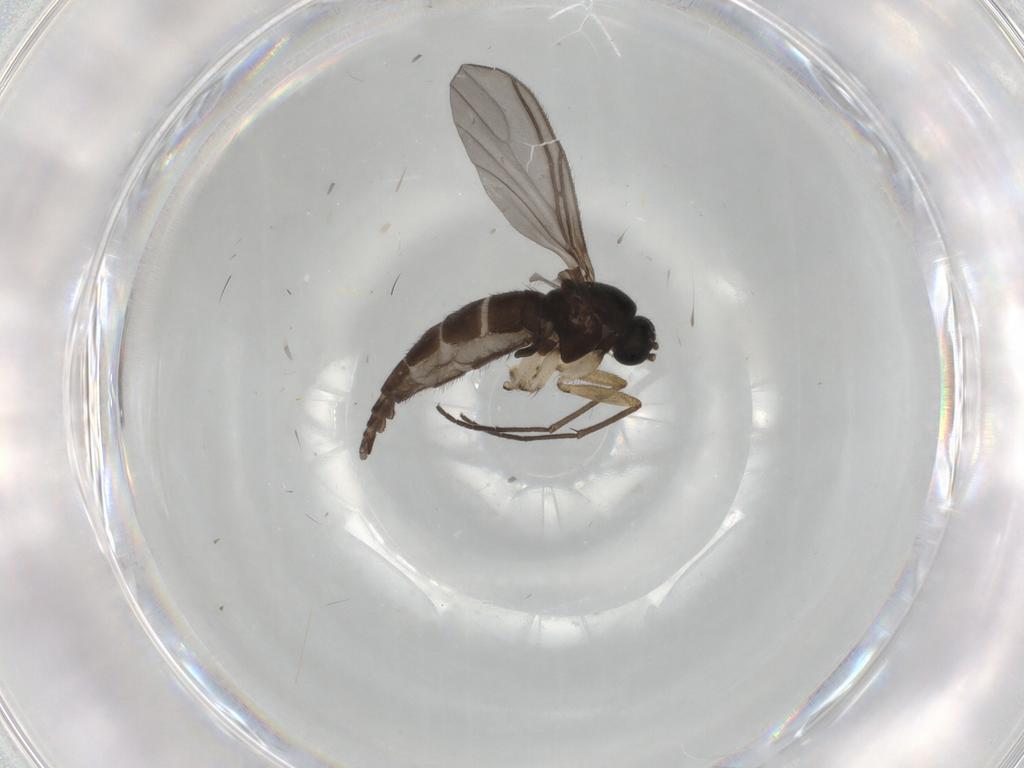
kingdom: Animalia
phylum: Arthropoda
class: Insecta
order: Diptera
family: Sciaridae
